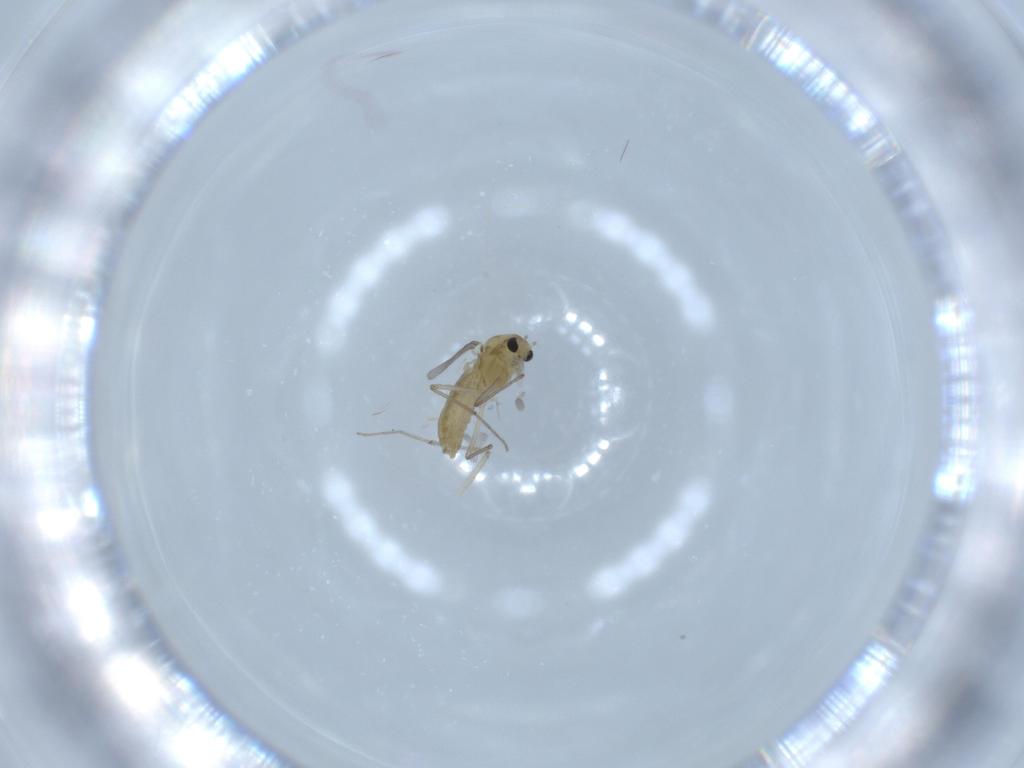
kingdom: Animalia
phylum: Arthropoda
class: Insecta
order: Diptera
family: Chironomidae
